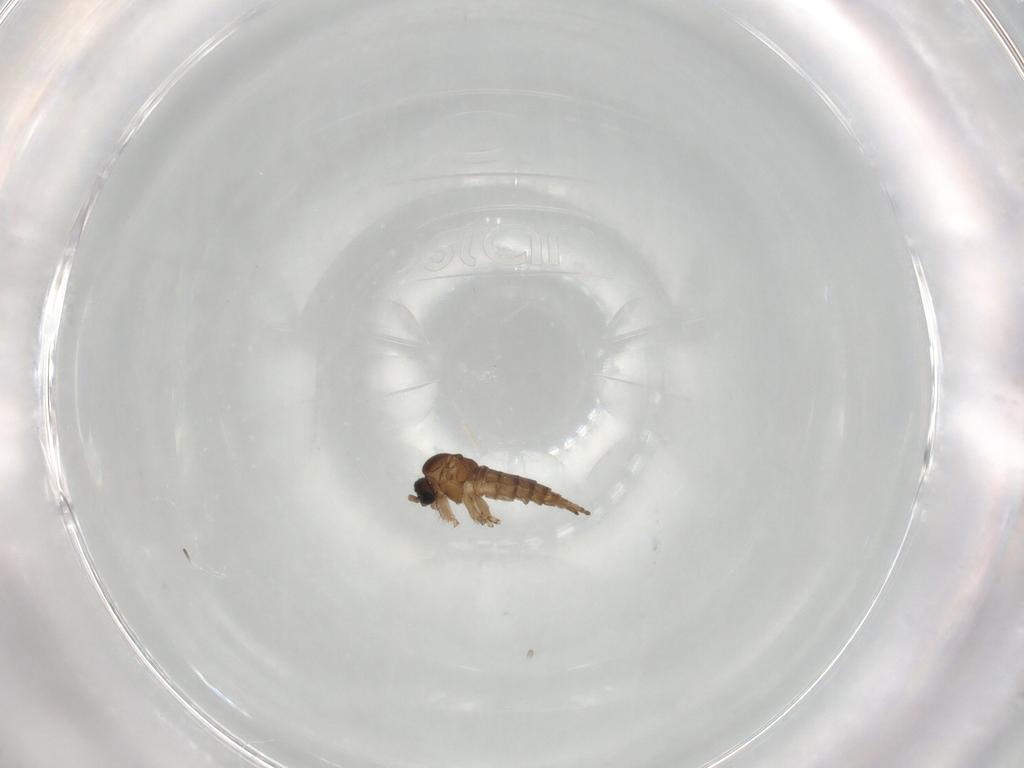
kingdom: Animalia
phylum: Arthropoda
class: Insecta
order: Diptera
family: Sciaridae
